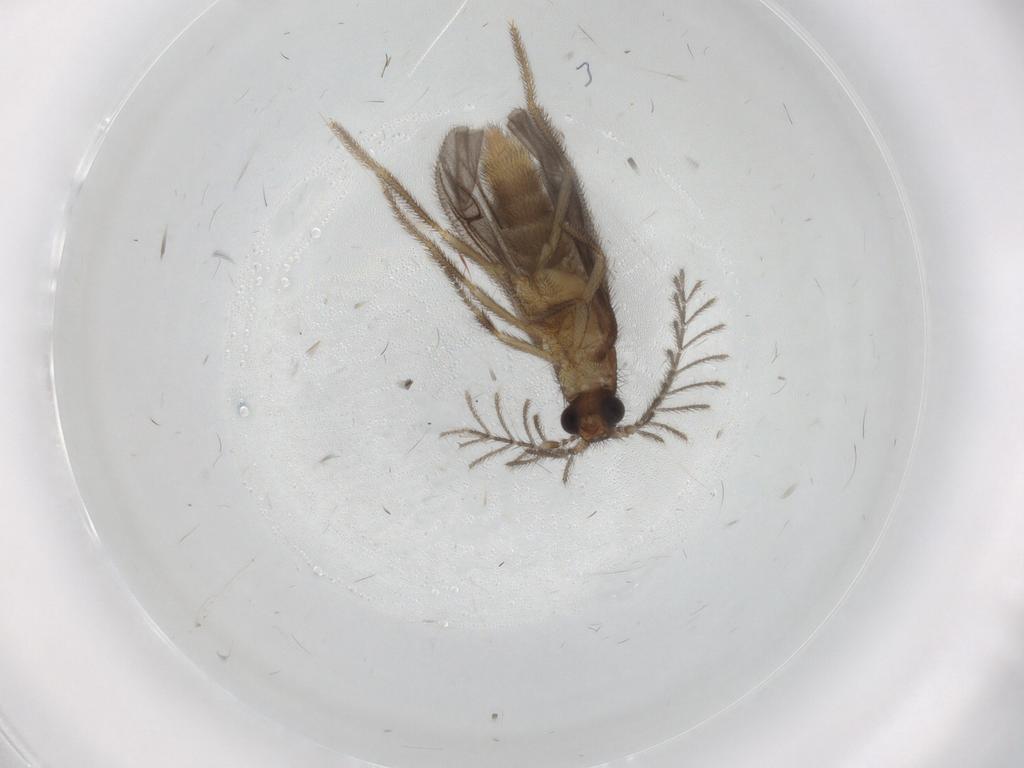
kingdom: Animalia
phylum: Arthropoda
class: Insecta
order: Coleoptera
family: Phengodidae
